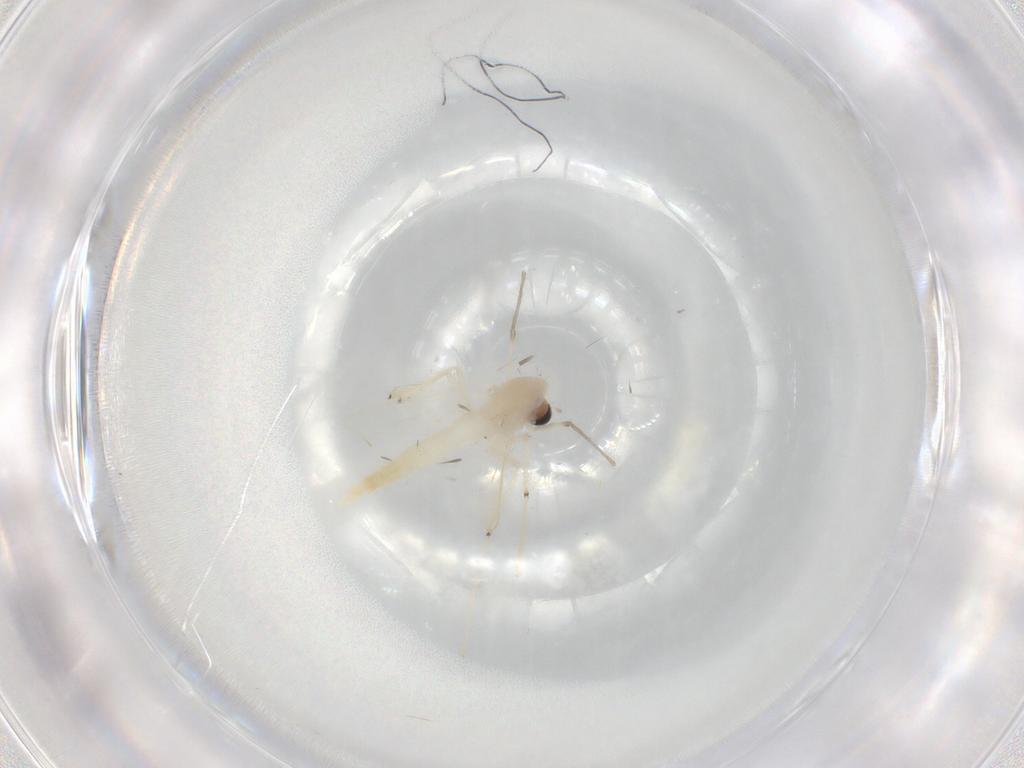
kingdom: Animalia
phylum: Arthropoda
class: Insecta
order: Diptera
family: Chironomidae
